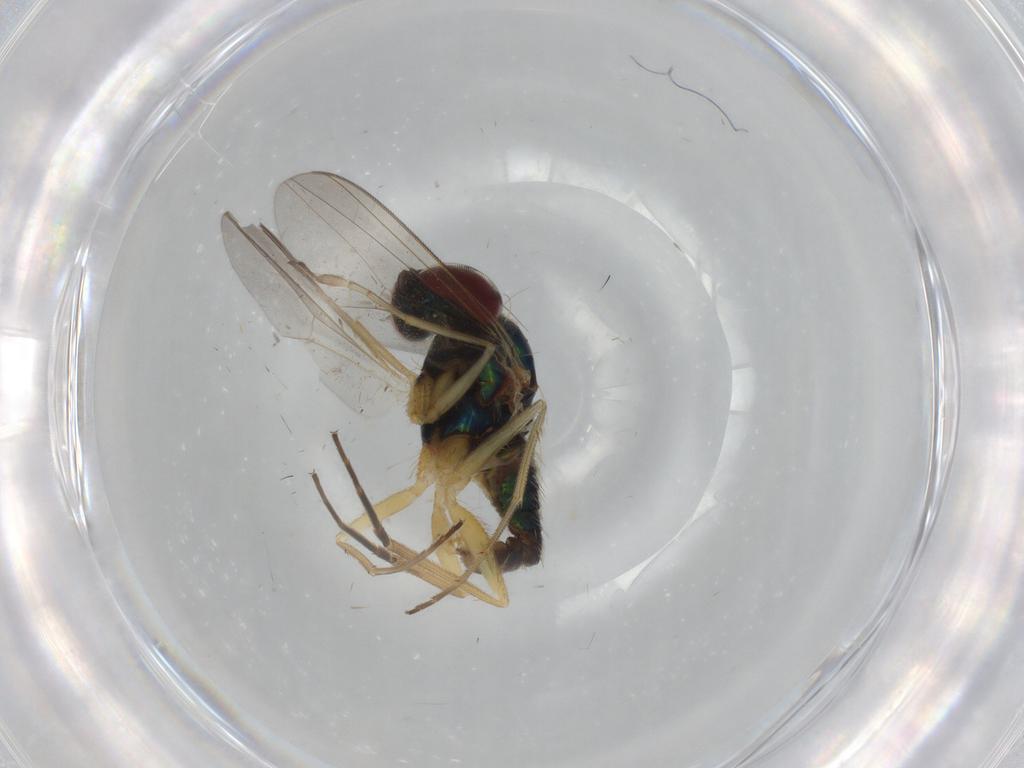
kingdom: Animalia
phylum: Arthropoda
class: Insecta
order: Diptera
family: Dolichopodidae
